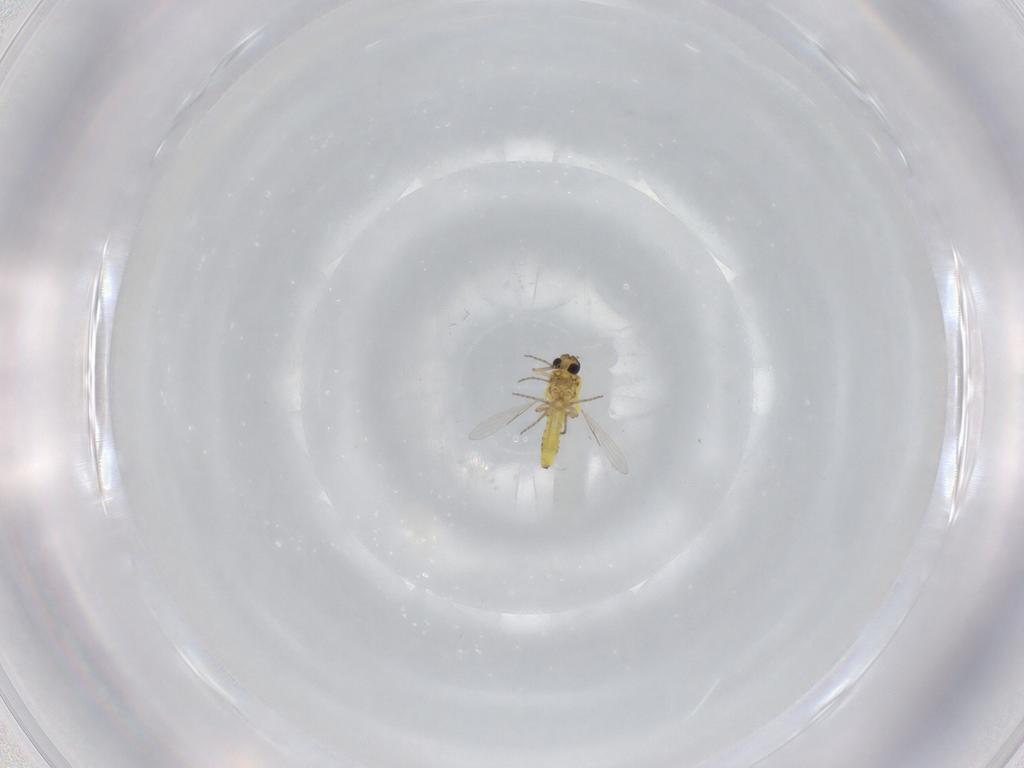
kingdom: Animalia
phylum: Arthropoda
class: Insecta
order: Diptera
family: Ceratopogonidae
